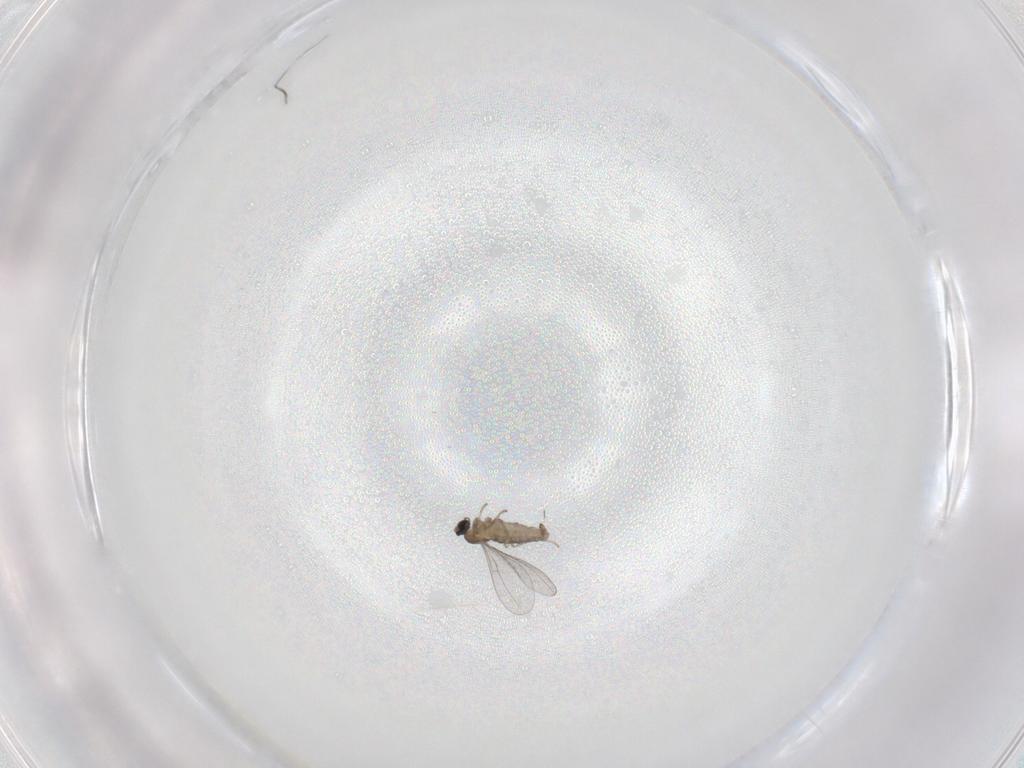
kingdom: Animalia
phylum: Arthropoda
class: Insecta
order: Diptera
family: Cecidomyiidae
